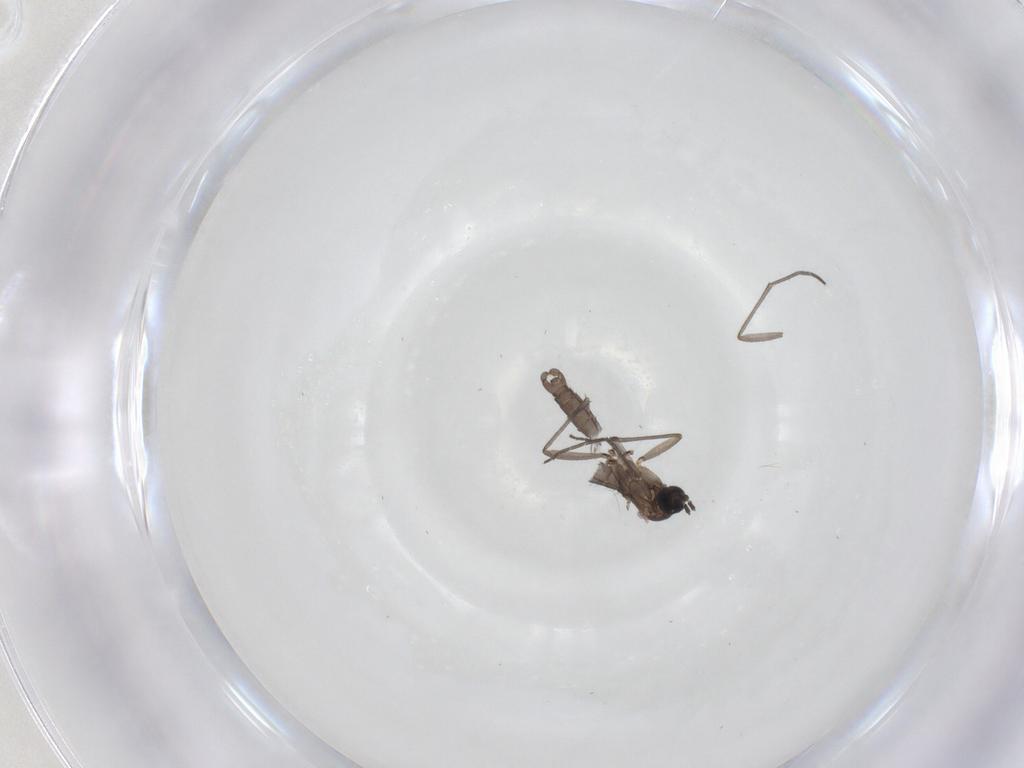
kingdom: Animalia
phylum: Arthropoda
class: Insecta
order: Diptera
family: Sciaridae
